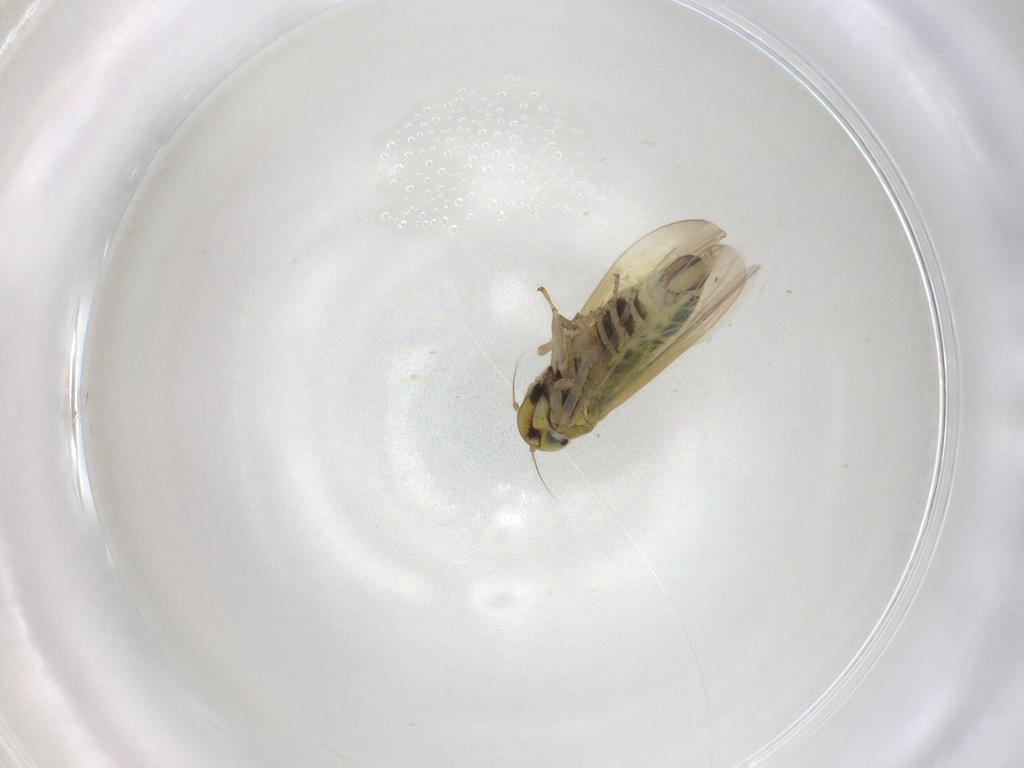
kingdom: Animalia
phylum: Arthropoda
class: Insecta
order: Hemiptera
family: Cicadellidae
